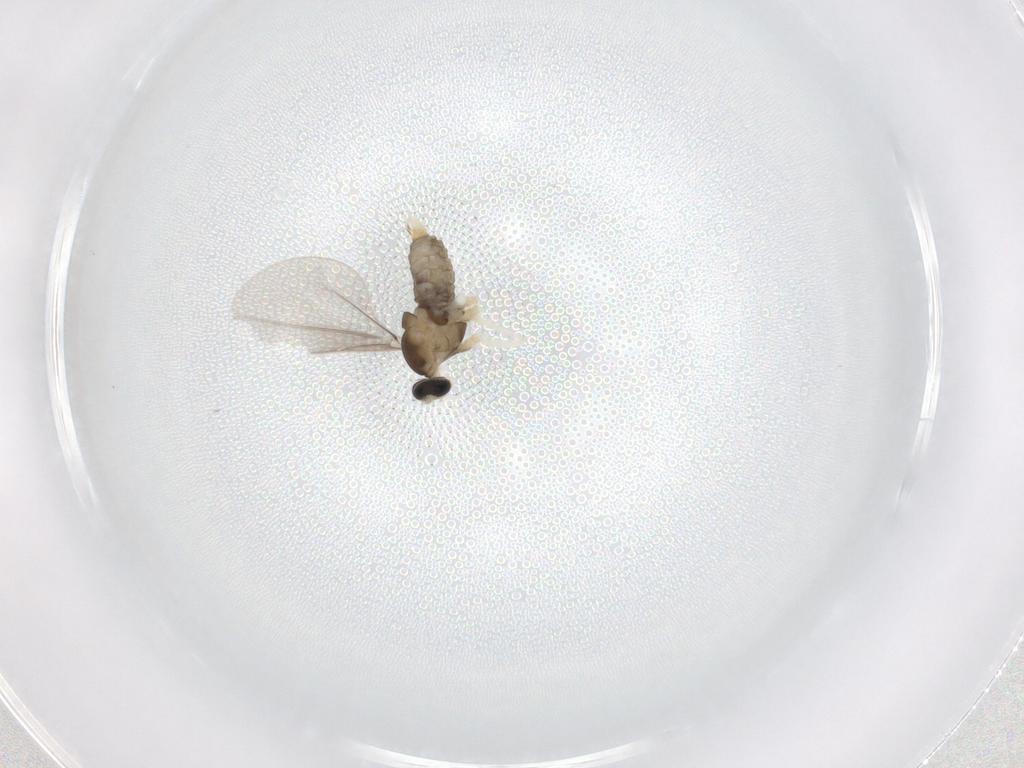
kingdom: Animalia
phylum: Arthropoda
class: Insecta
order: Diptera
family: Cecidomyiidae
